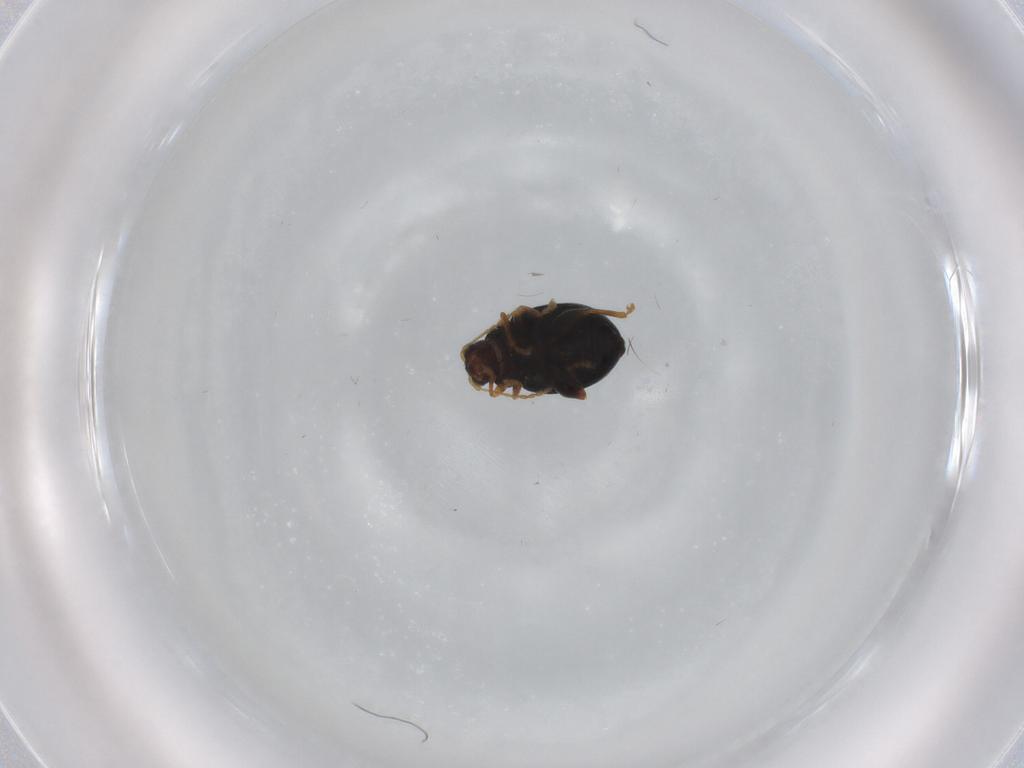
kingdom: Animalia
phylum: Arthropoda
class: Insecta
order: Coleoptera
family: Chrysomelidae
